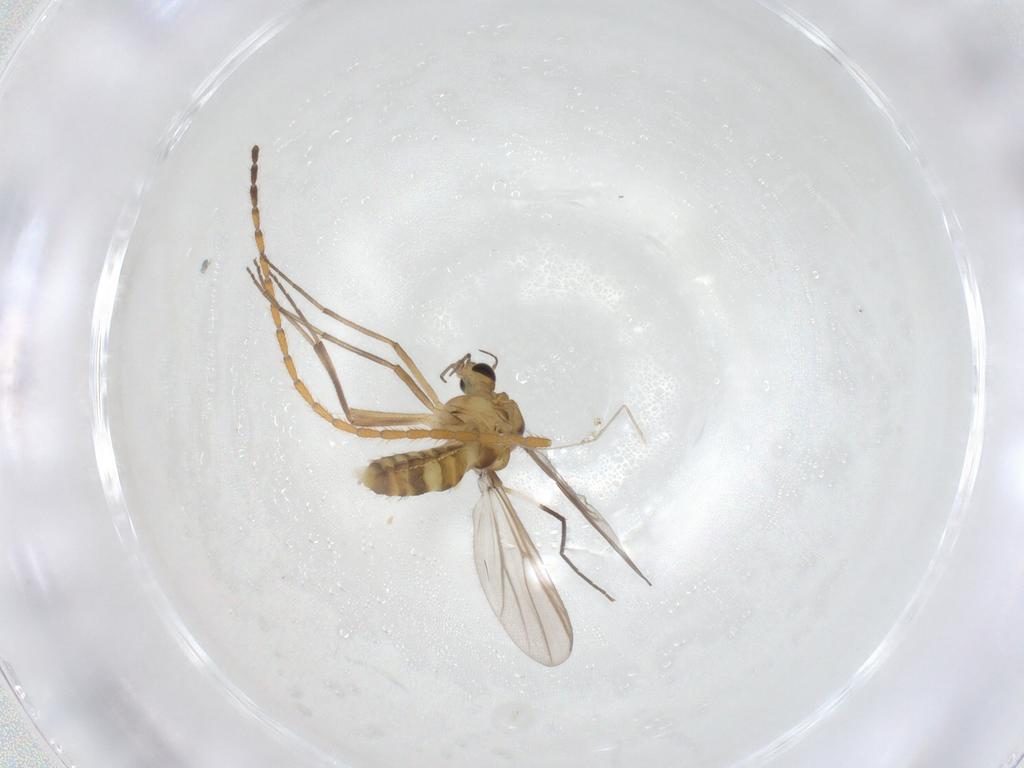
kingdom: Animalia
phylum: Arthropoda
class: Insecta
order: Diptera
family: Chironomidae
